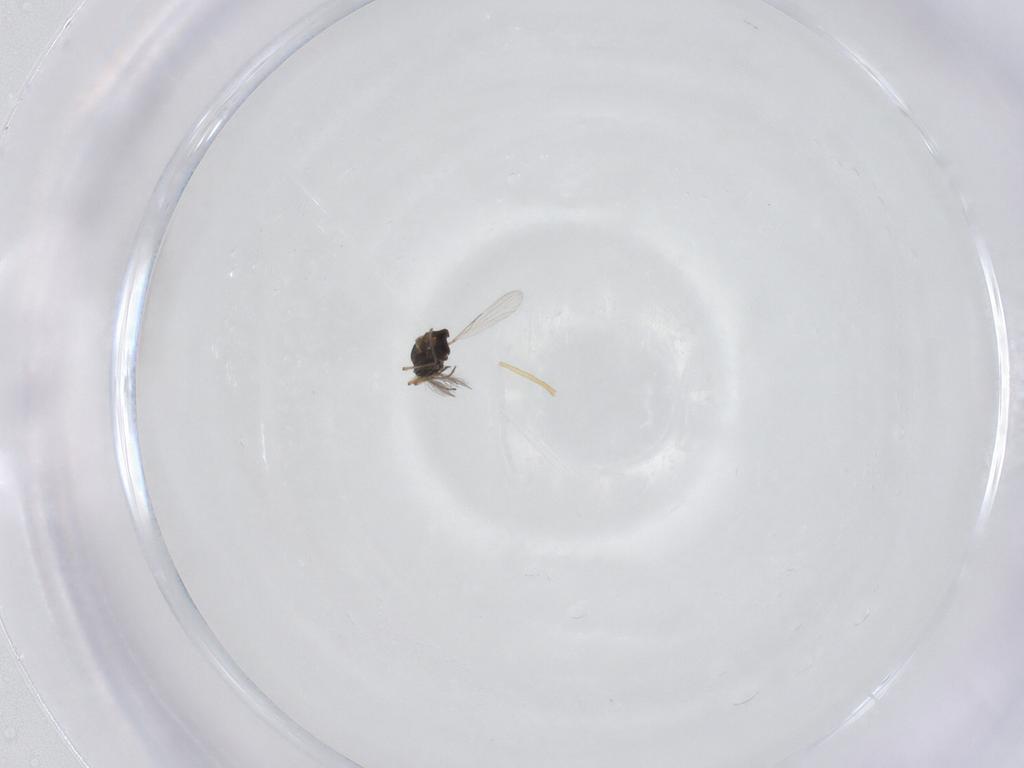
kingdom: Animalia
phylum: Arthropoda
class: Insecta
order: Diptera
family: Ceratopogonidae
